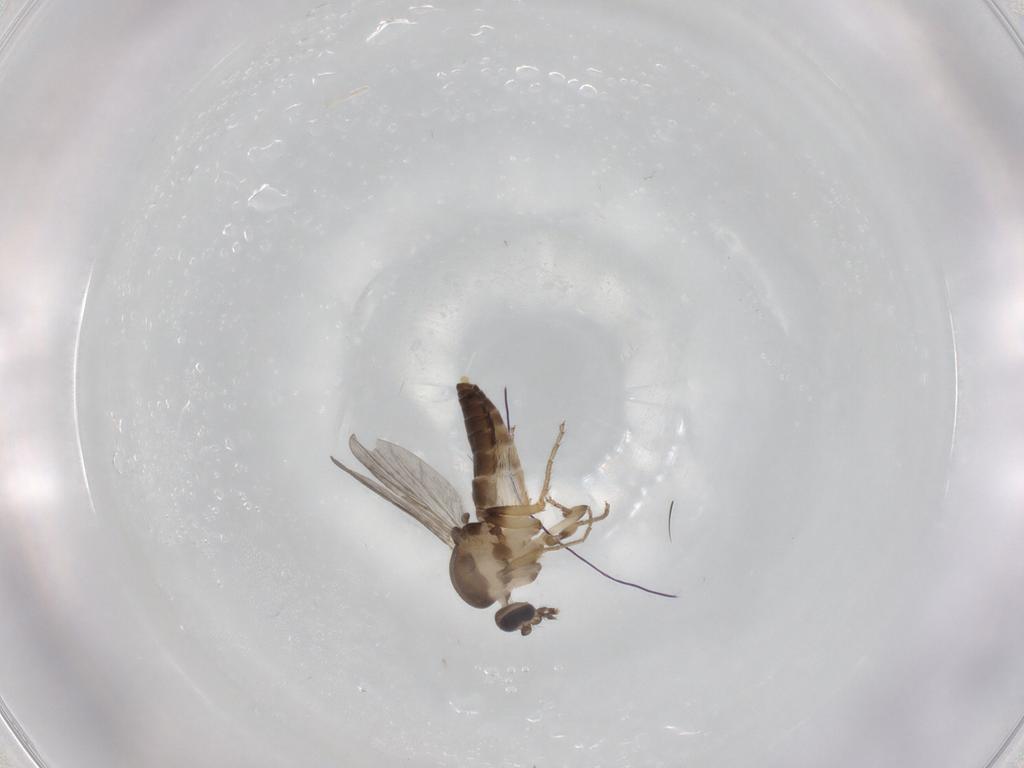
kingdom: Animalia
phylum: Arthropoda
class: Insecta
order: Diptera
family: Ceratopogonidae
